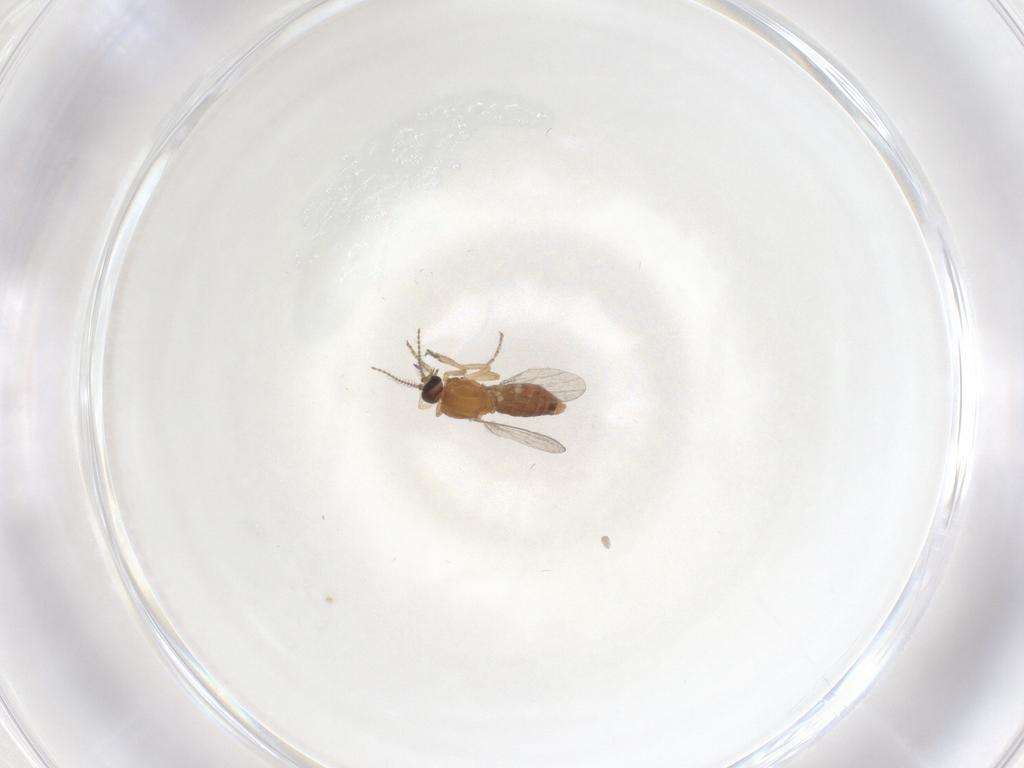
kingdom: Animalia
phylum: Arthropoda
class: Insecta
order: Diptera
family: Ceratopogonidae
